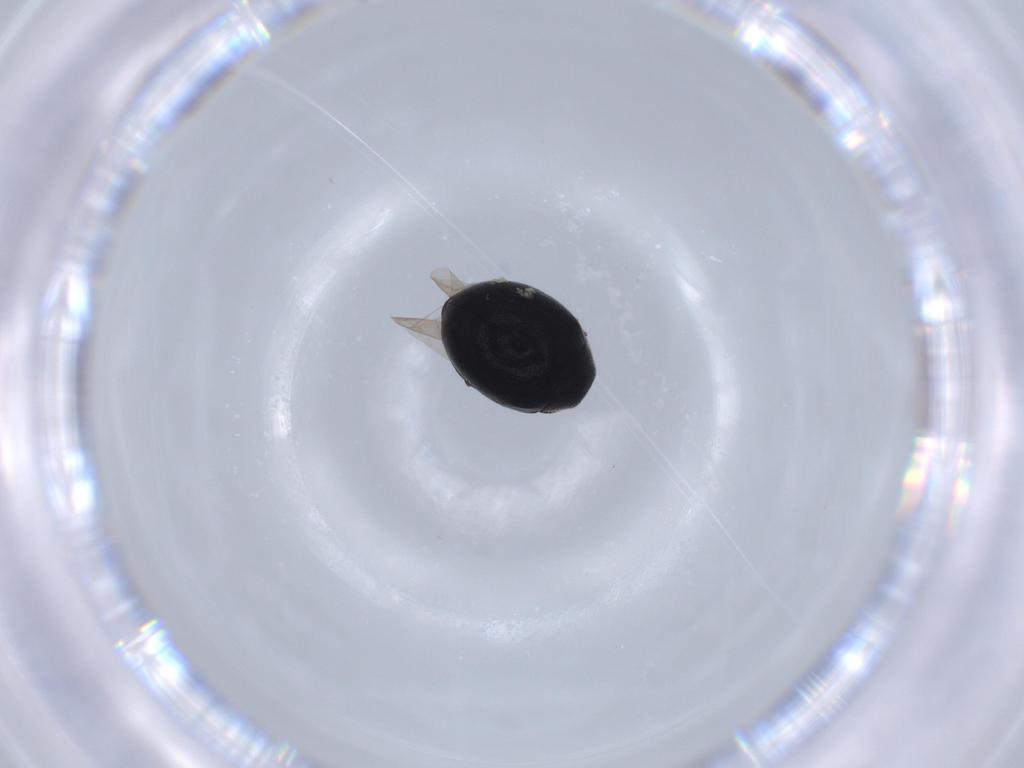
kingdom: Animalia
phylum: Arthropoda
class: Insecta
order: Coleoptera
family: Coccinellidae
